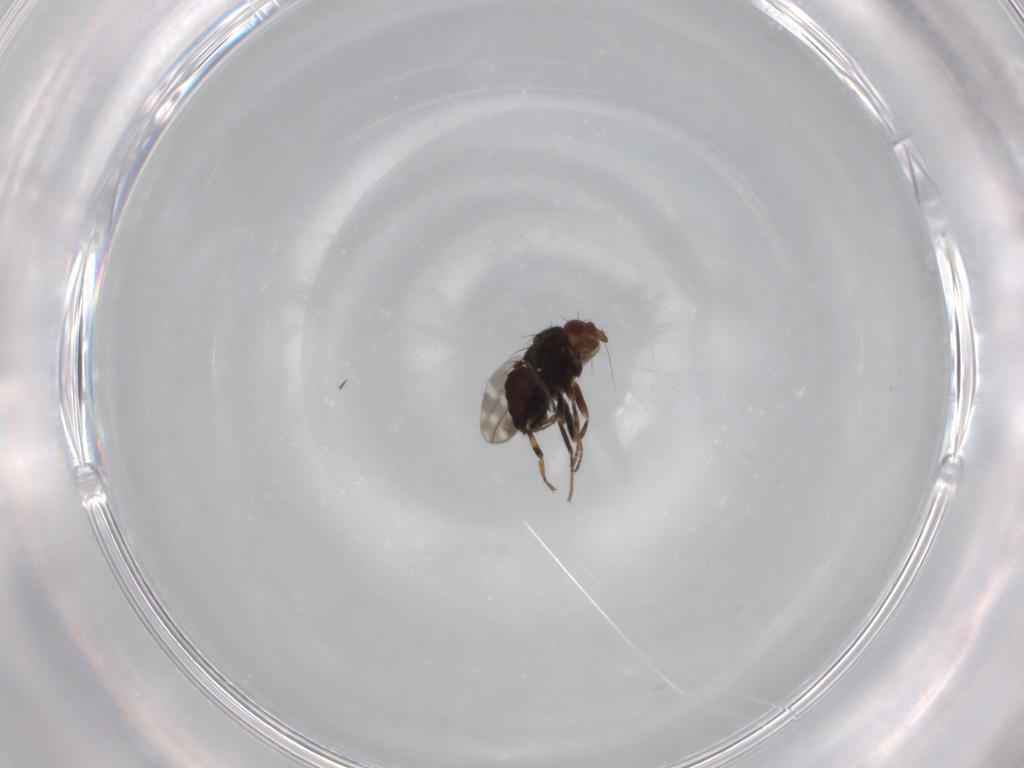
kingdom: Animalia
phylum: Arthropoda
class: Insecta
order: Diptera
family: Sphaeroceridae
